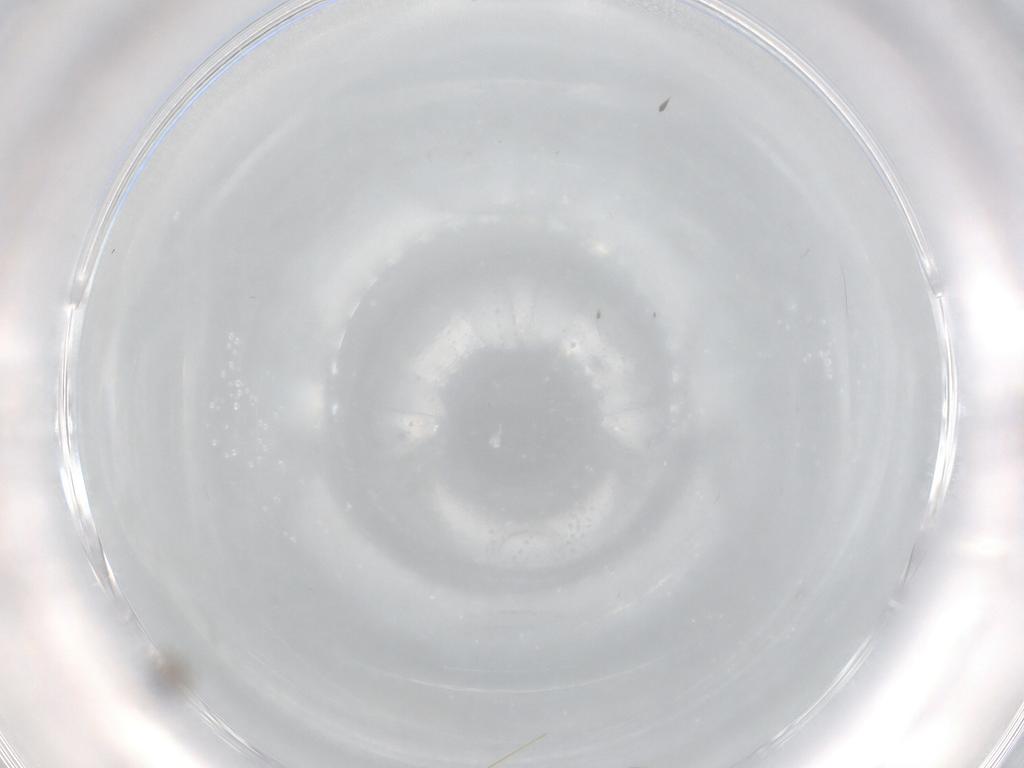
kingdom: Animalia
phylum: Arthropoda
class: Insecta
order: Diptera
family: Cecidomyiidae
